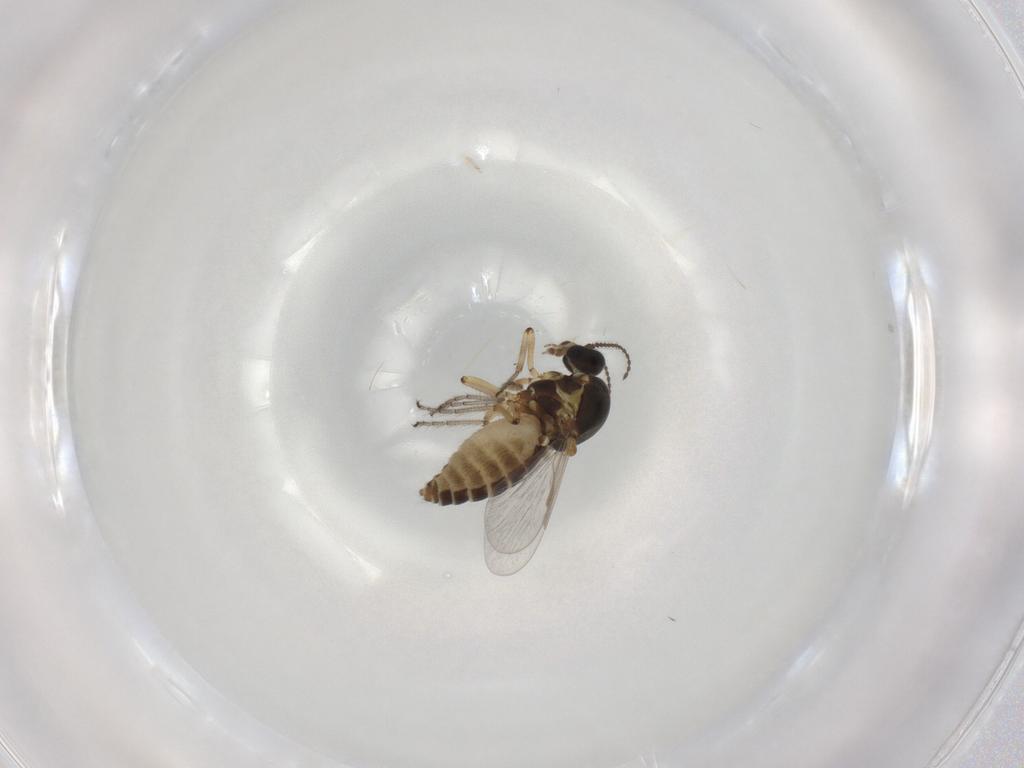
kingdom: Animalia
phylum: Arthropoda
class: Insecta
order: Diptera
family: Ceratopogonidae
